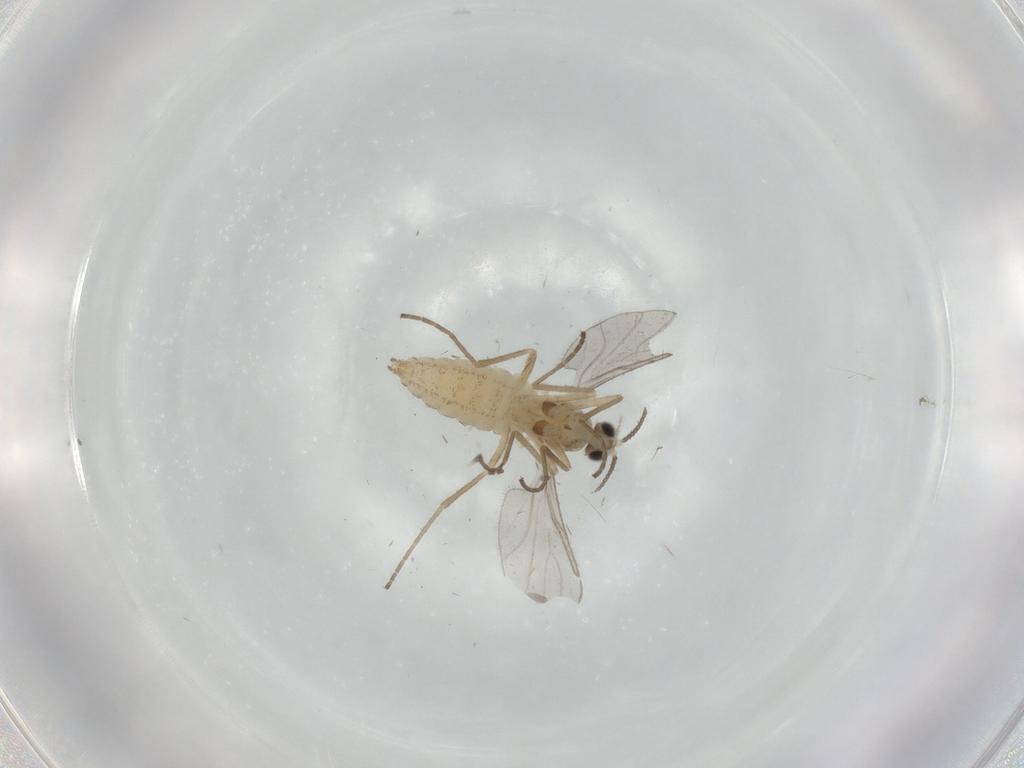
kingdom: Animalia
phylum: Arthropoda
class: Insecta
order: Diptera
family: Cecidomyiidae
